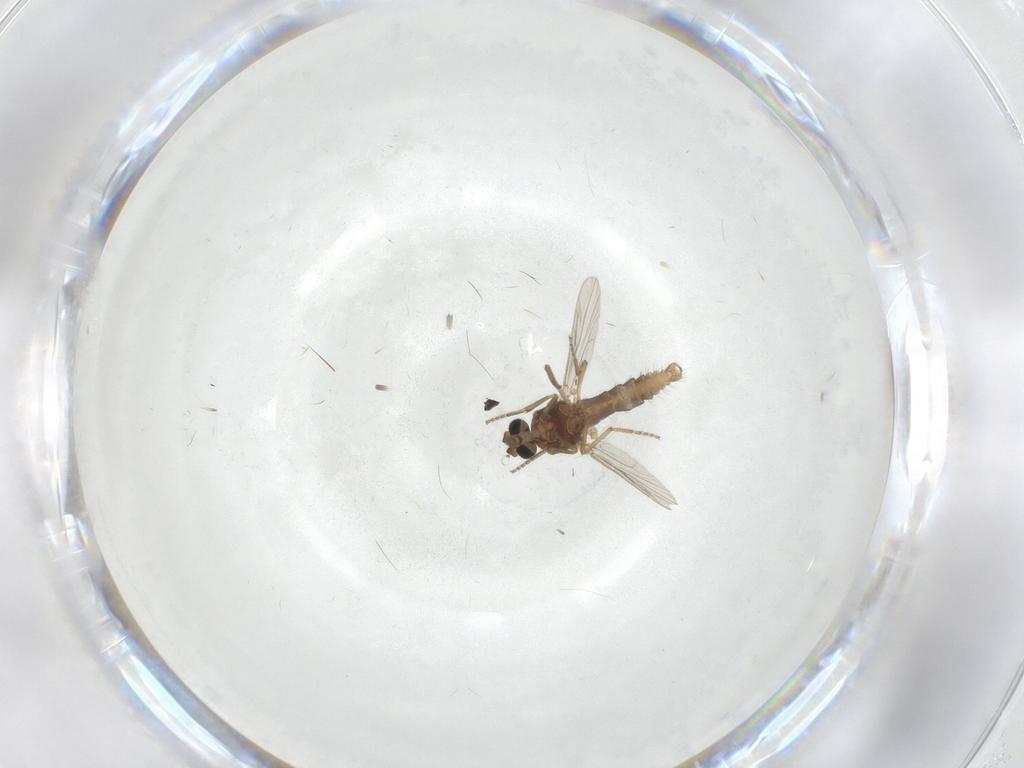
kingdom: Animalia
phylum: Arthropoda
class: Insecta
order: Diptera
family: Ceratopogonidae
